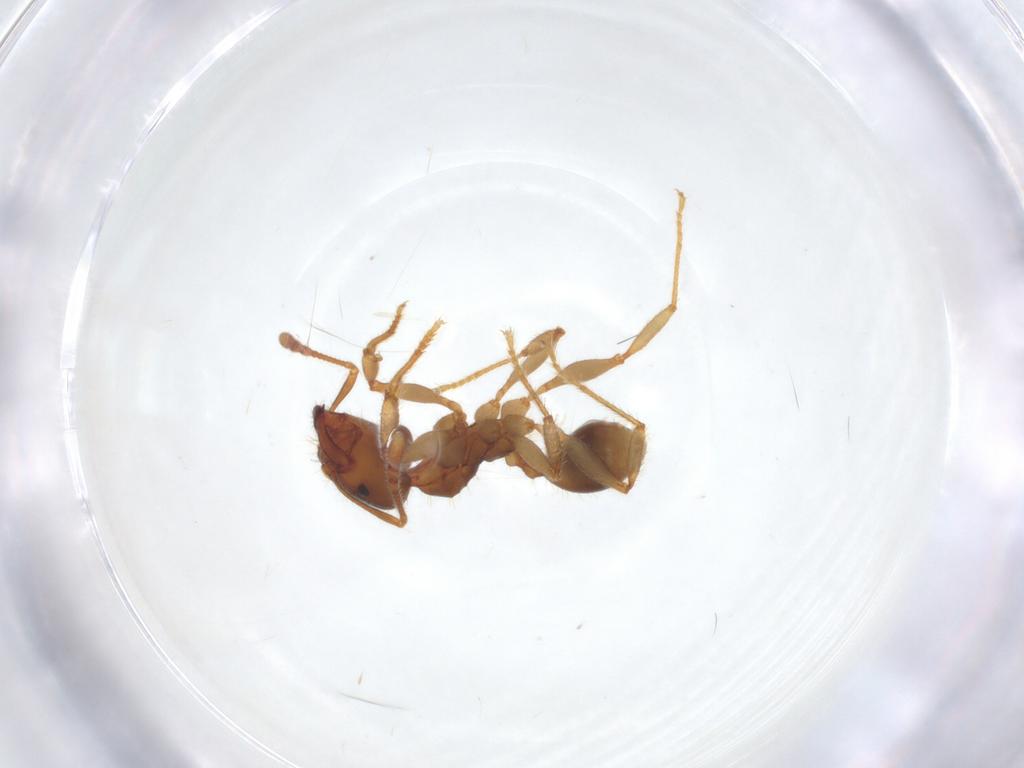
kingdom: Animalia
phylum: Arthropoda
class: Insecta
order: Hymenoptera
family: Formicidae
